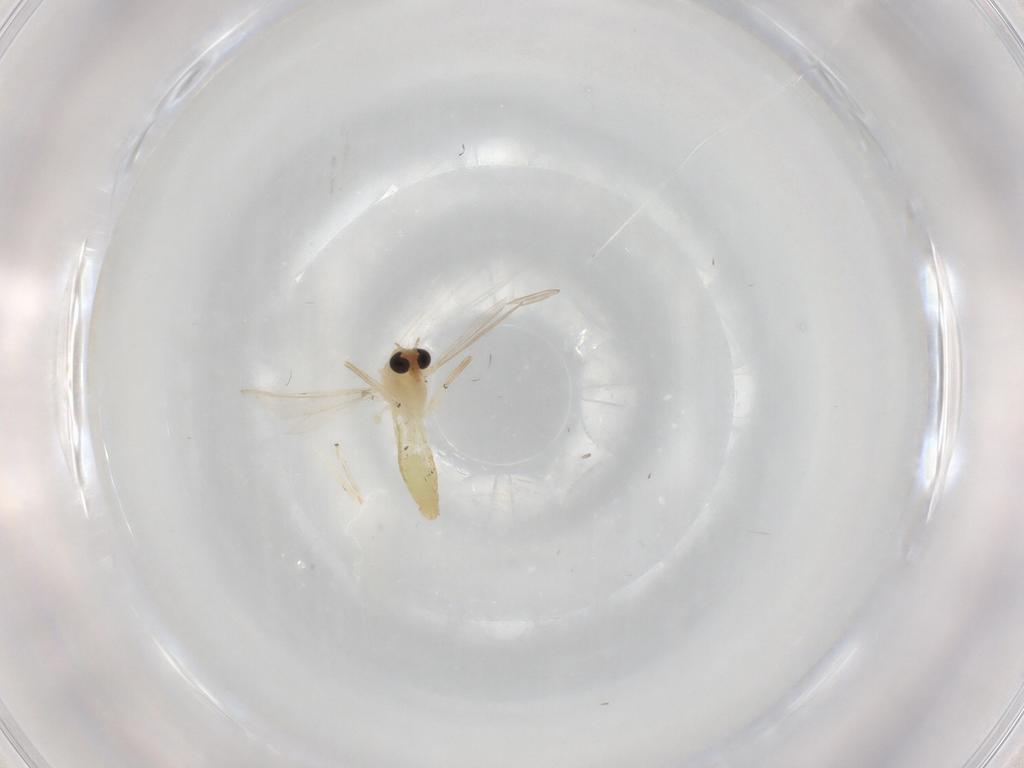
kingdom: Animalia
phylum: Arthropoda
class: Insecta
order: Diptera
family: Chironomidae
